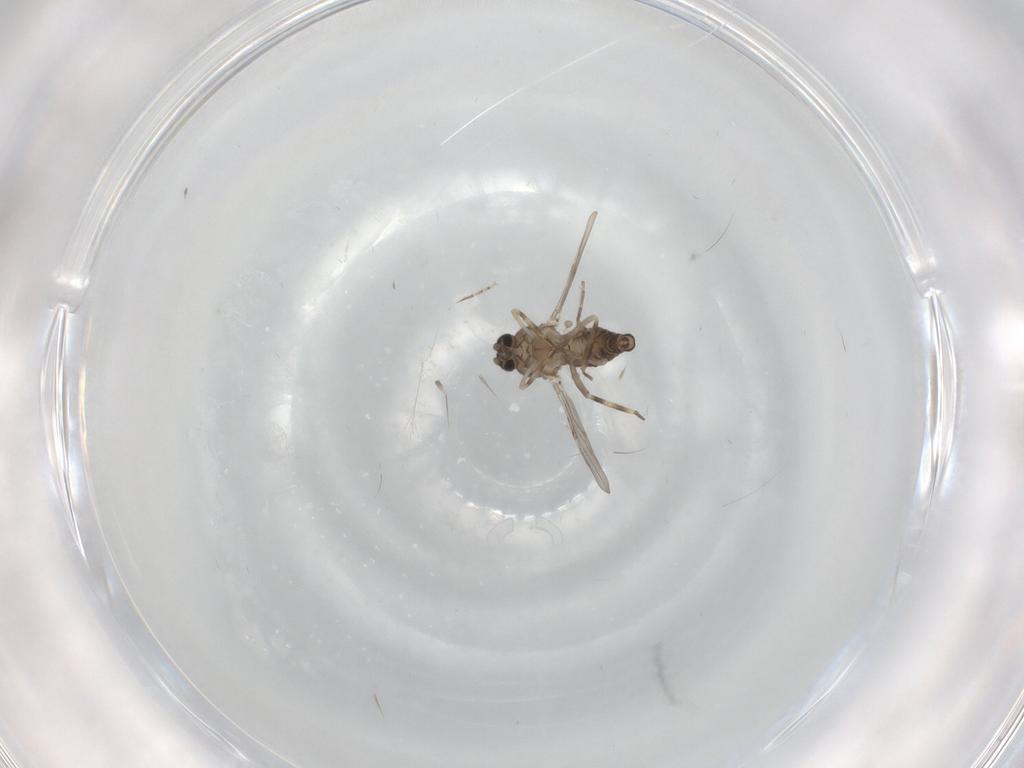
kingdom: Animalia
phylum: Arthropoda
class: Insecta
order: Diptera
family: Ceratopogonidae
